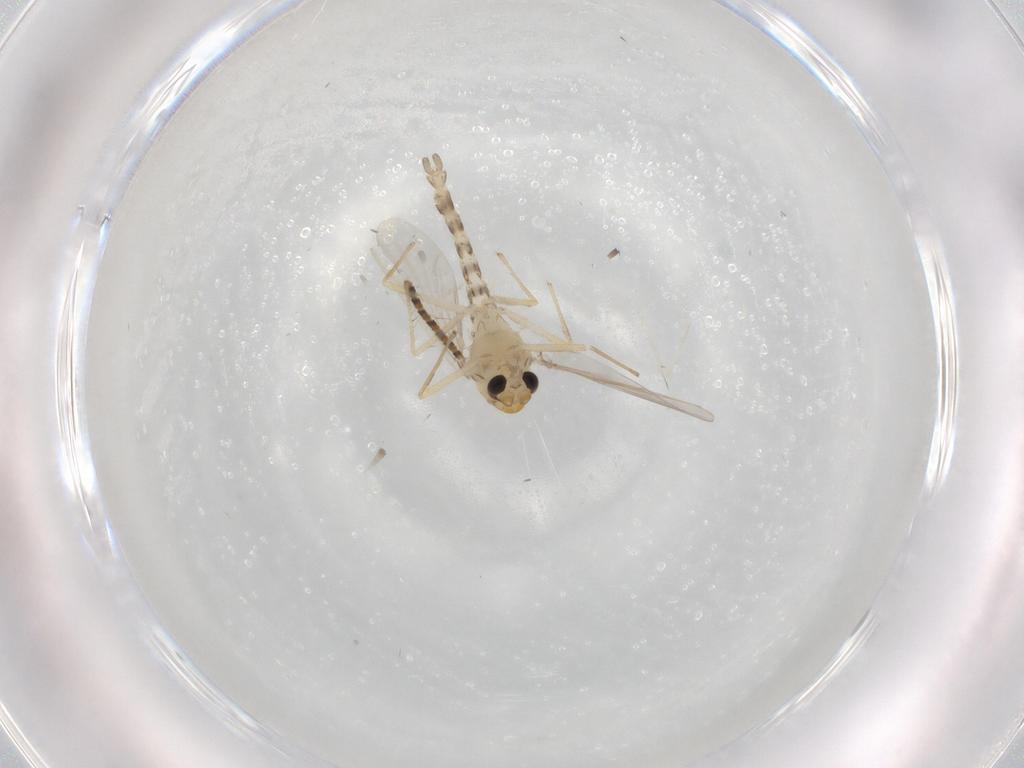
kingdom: Animalia
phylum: Arthropoda
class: Insecta
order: Diptera
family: Chironomidae
